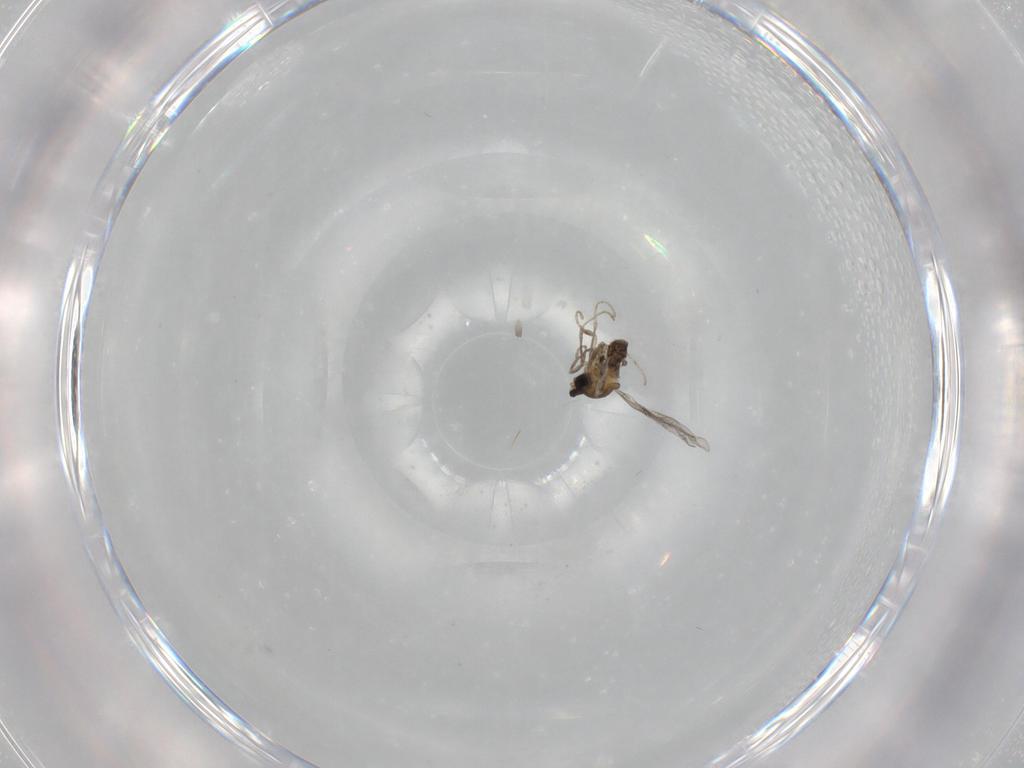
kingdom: Animalia
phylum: Arthropoda
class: Insecta
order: Diptera
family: Cecidomyiidae
